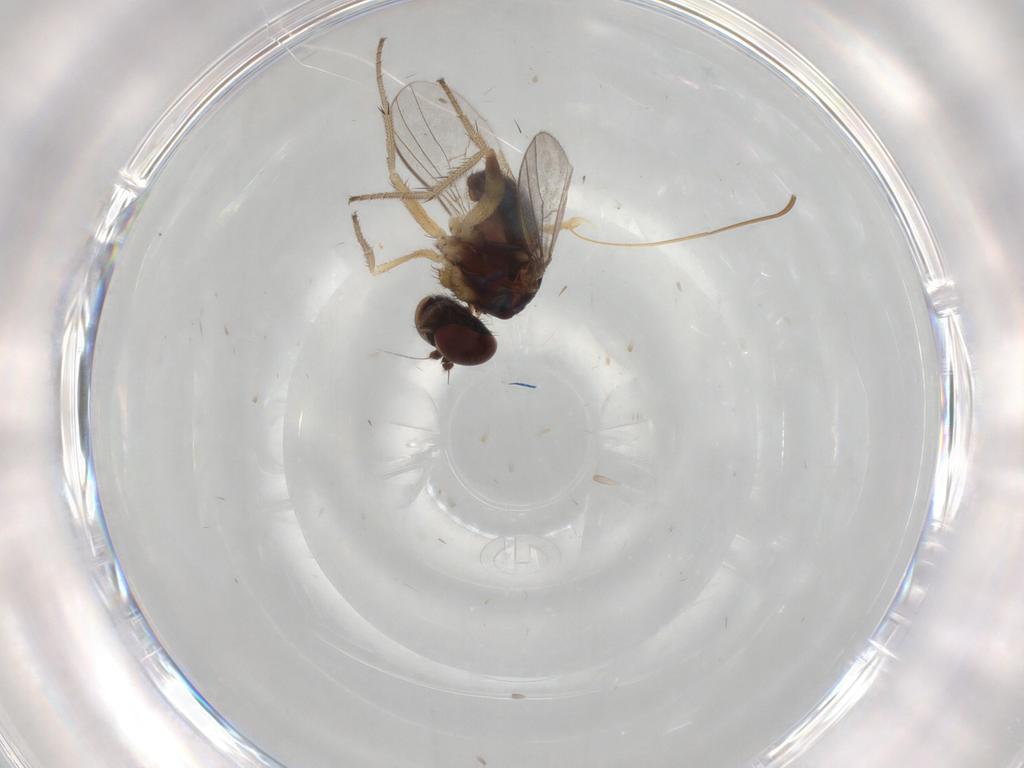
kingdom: Animalia
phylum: Arthropoda
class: Insecta
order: Diptera
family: Agromyzidae
